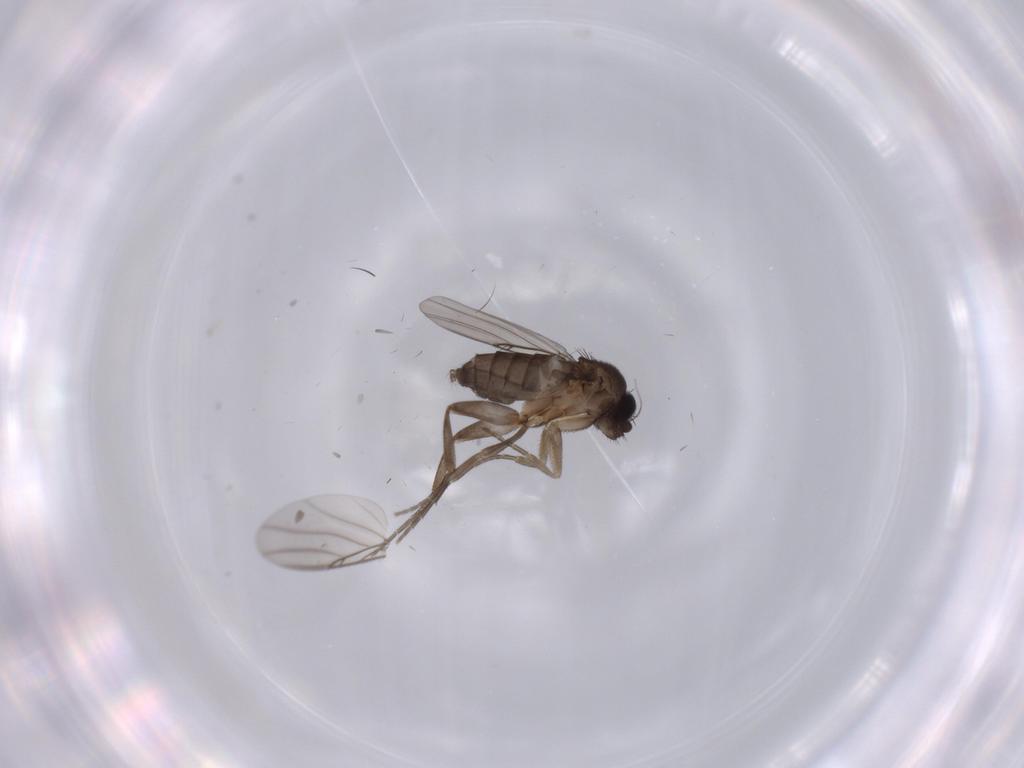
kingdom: Animalia
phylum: Arthropoda
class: Insecta
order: Diptera
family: Phoridae
